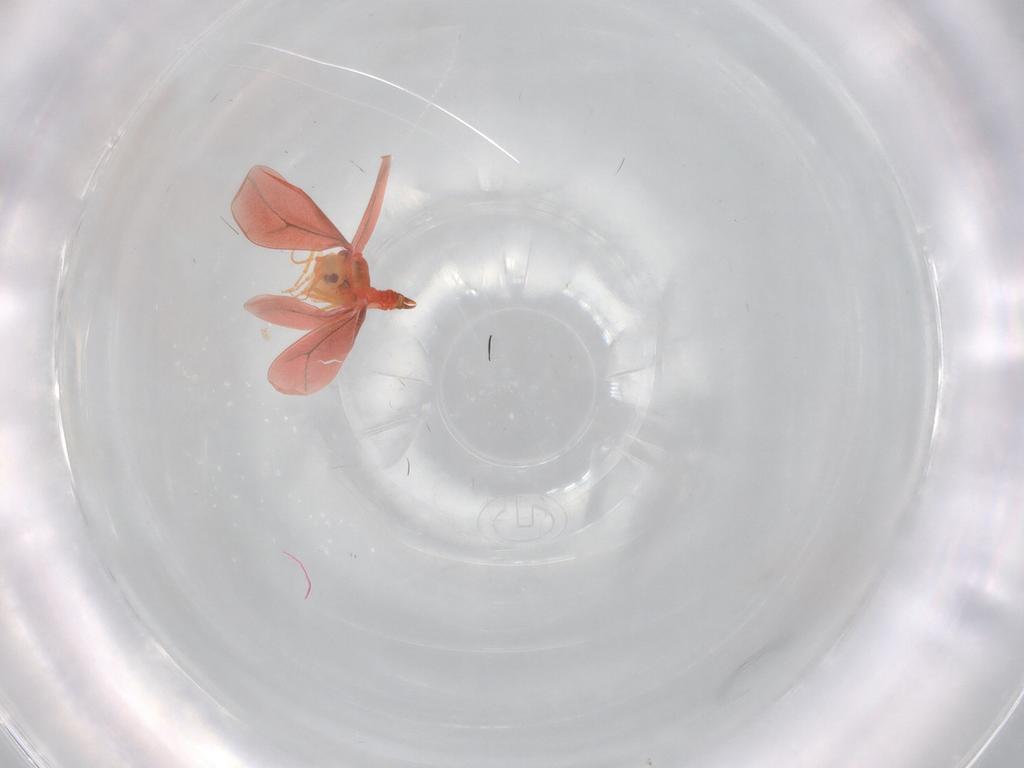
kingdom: Animalia
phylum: Arthropoda
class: Insecta
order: Hemiptera
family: Aleyrodidae
